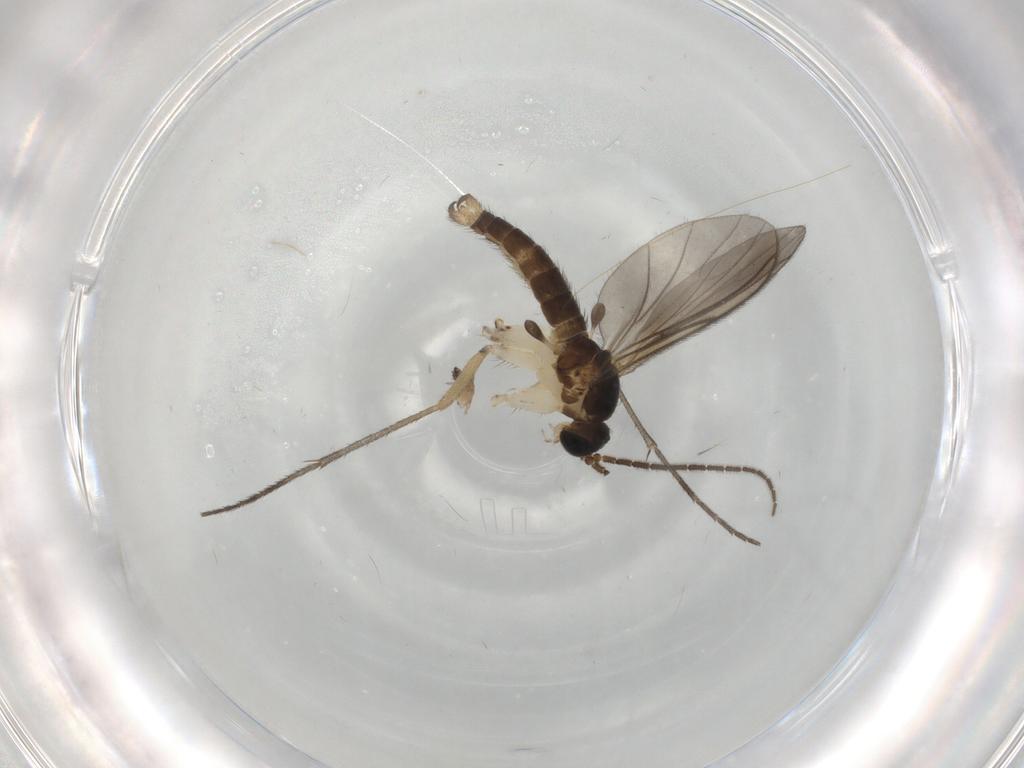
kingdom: Animalia
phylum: Arthropoda
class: Insecta
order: Diptera
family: Sciaridae
